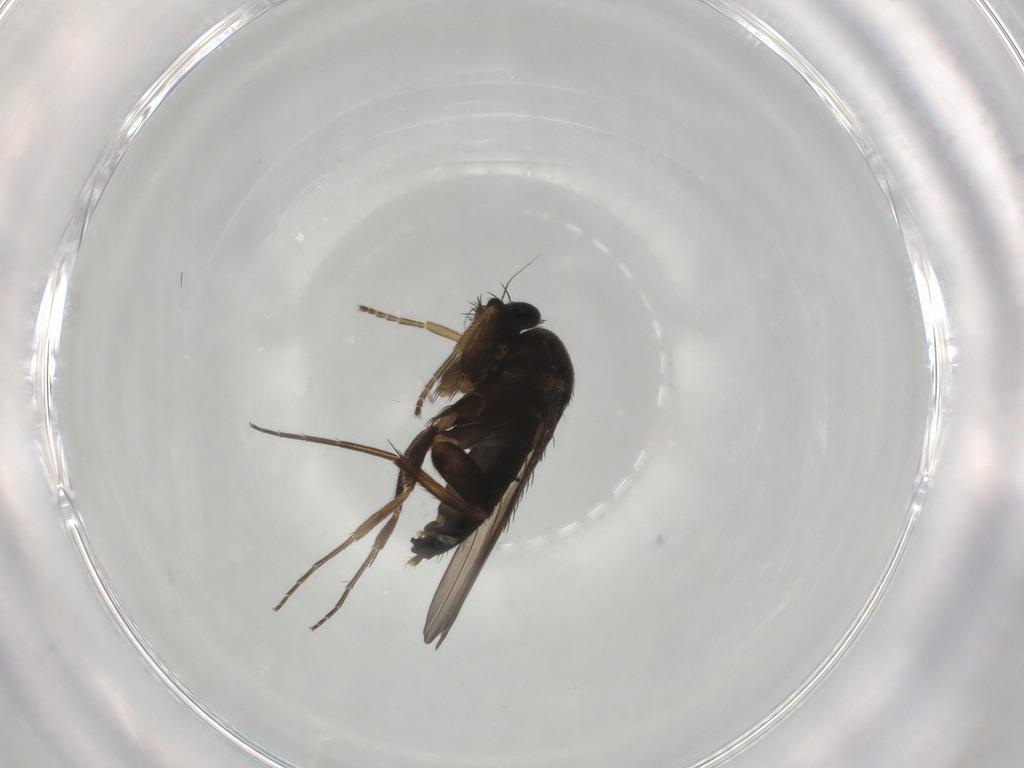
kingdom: Animalia
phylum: Arthropoda
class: Insecta
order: Diptera
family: Phoridae
